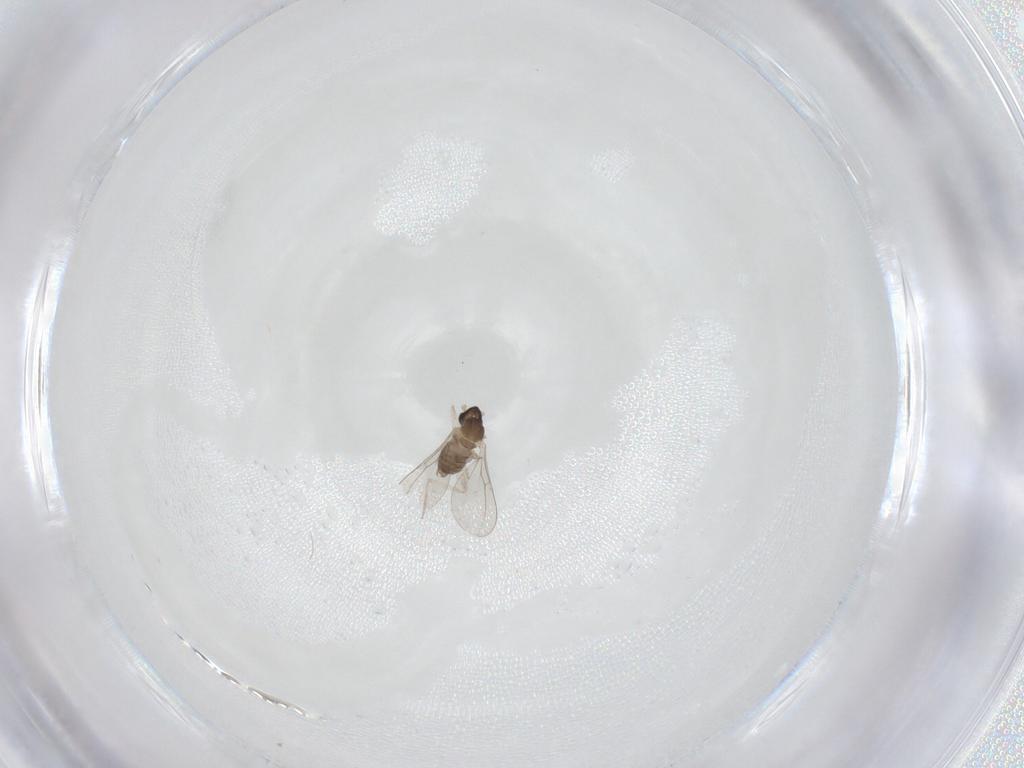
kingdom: Animalia
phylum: Arthropoda
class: Insecta
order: Diptera
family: Cecidomyiidae
